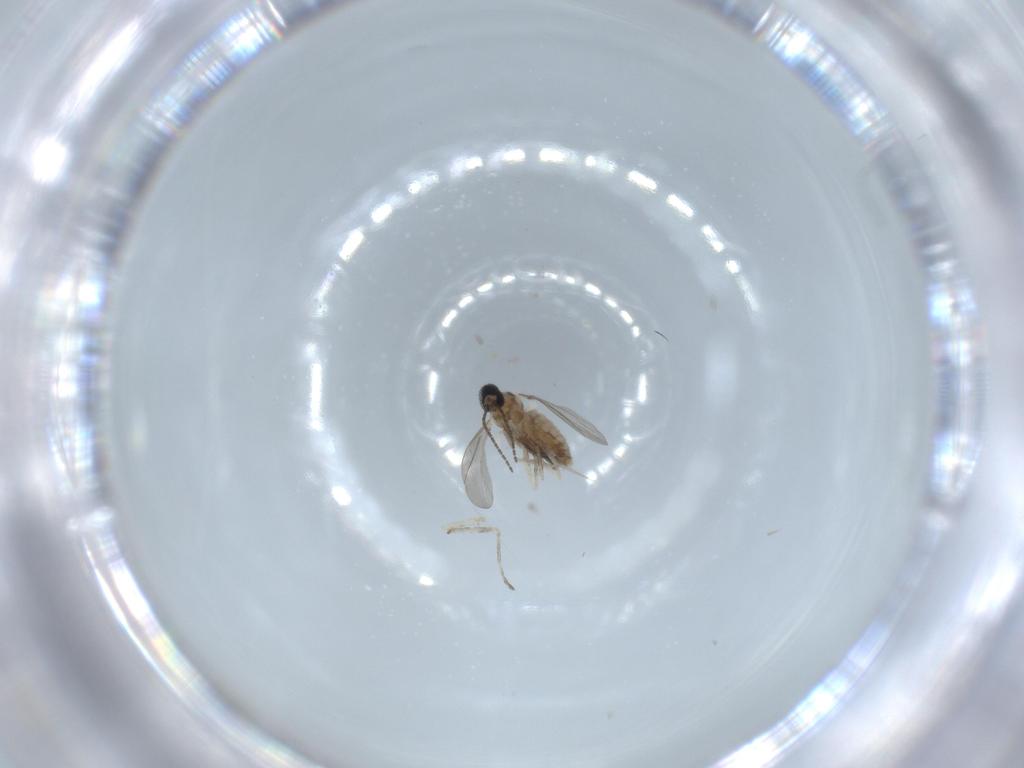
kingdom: Animalia
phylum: Arthropoda
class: Insecta
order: Diptera
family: Cecidomyiidae
